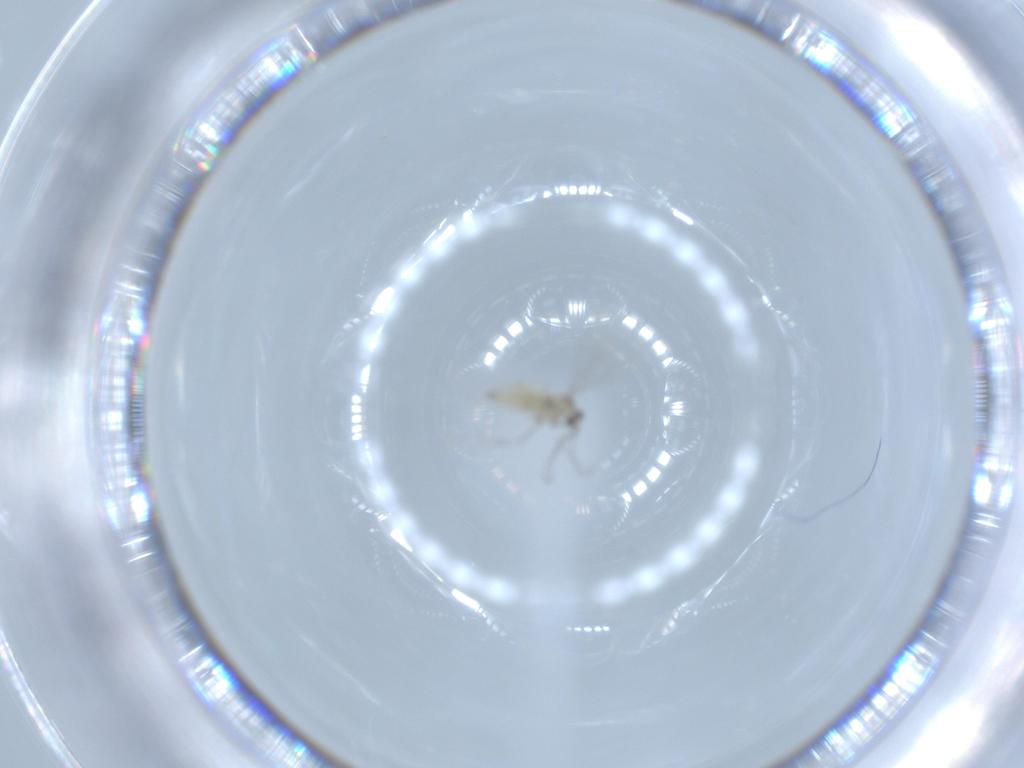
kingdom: Animalia
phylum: Arthropoda
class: Insecta
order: Diptera
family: Cecidomyiidae
